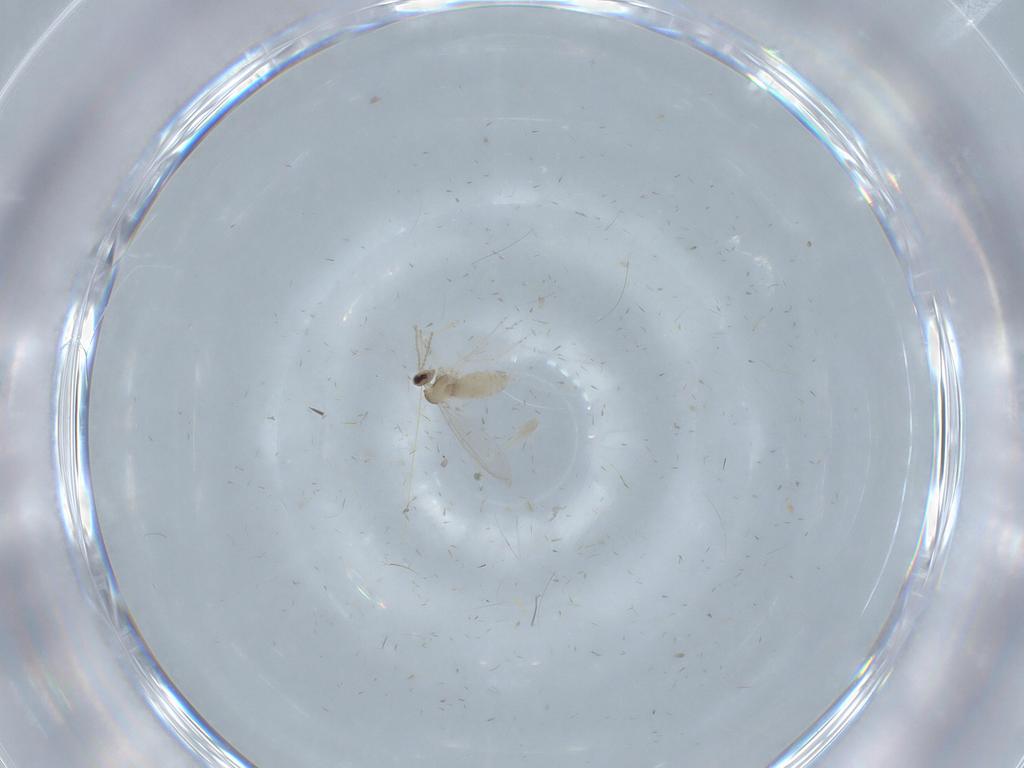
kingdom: Animalia
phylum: Arthropoda
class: Insecta
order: Diptera
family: Cecidomyiidae
